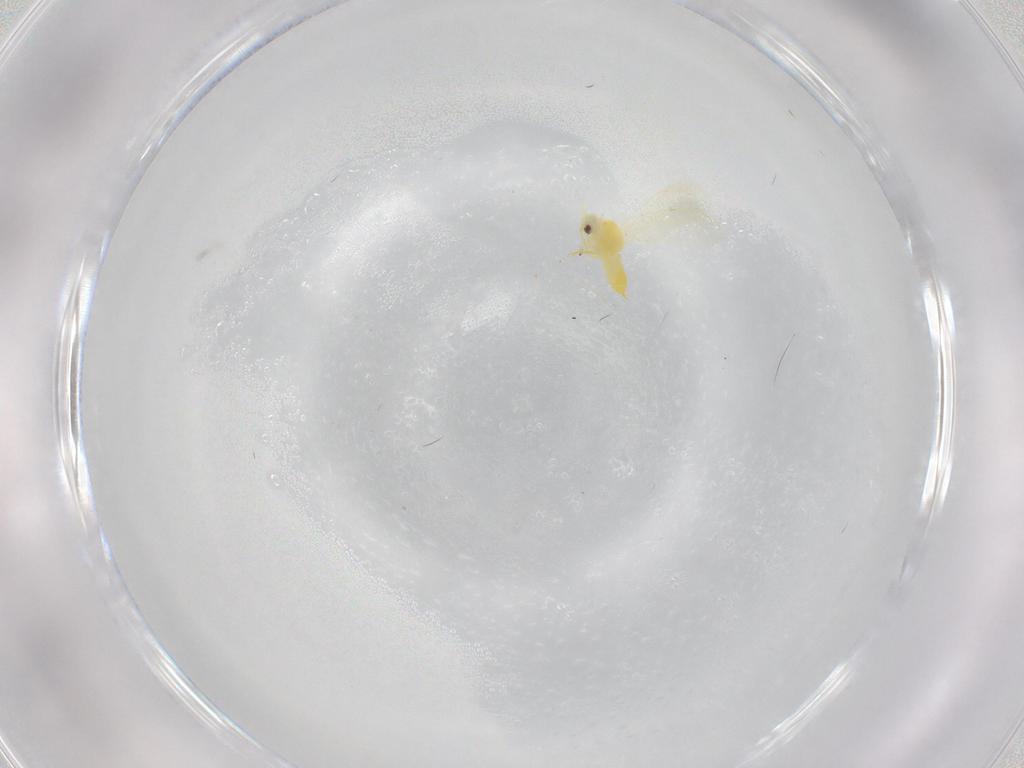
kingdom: Animalia
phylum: Arthropoda
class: Insecta
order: Hemiptera
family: Aleyrodidae
